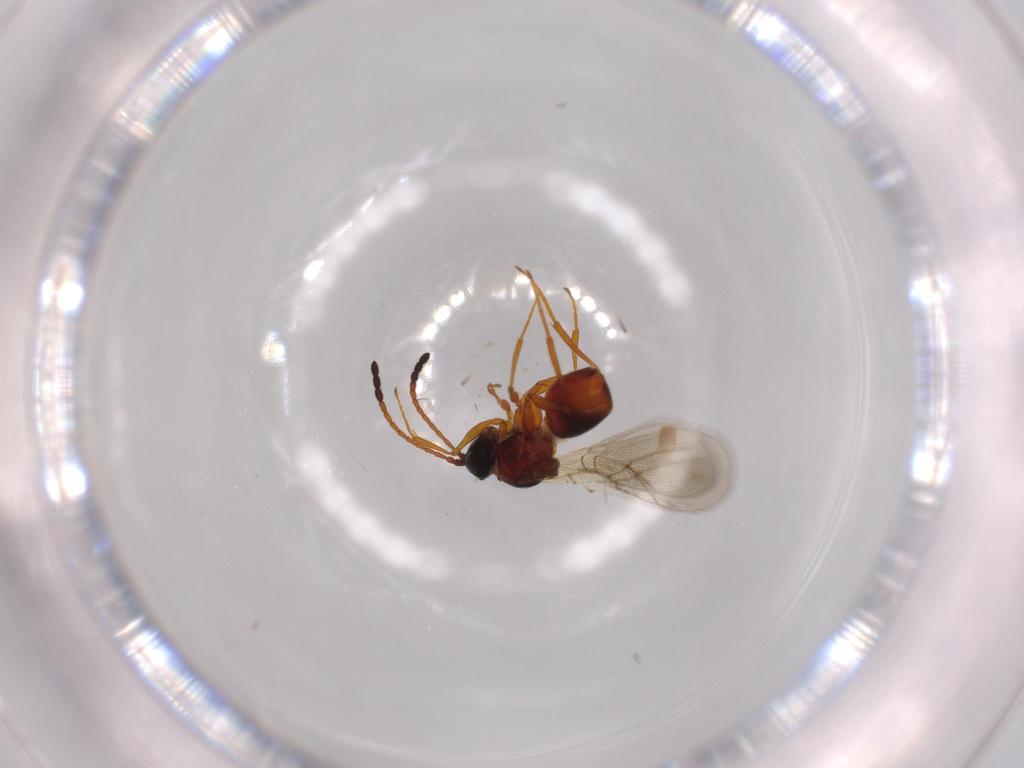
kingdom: Animalia
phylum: Arthropoda
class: Insecta
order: Hymenoptera
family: Figitidae
